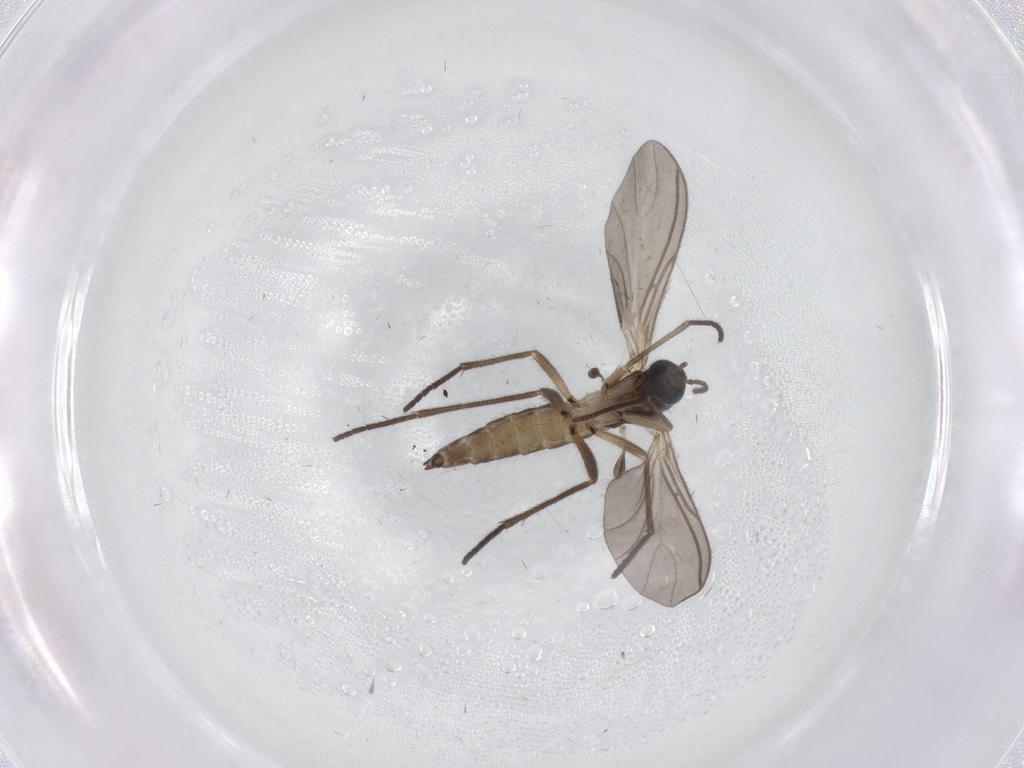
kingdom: Animalia
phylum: Arthropoda
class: Insecta
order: Diptera
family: Sciaridae
